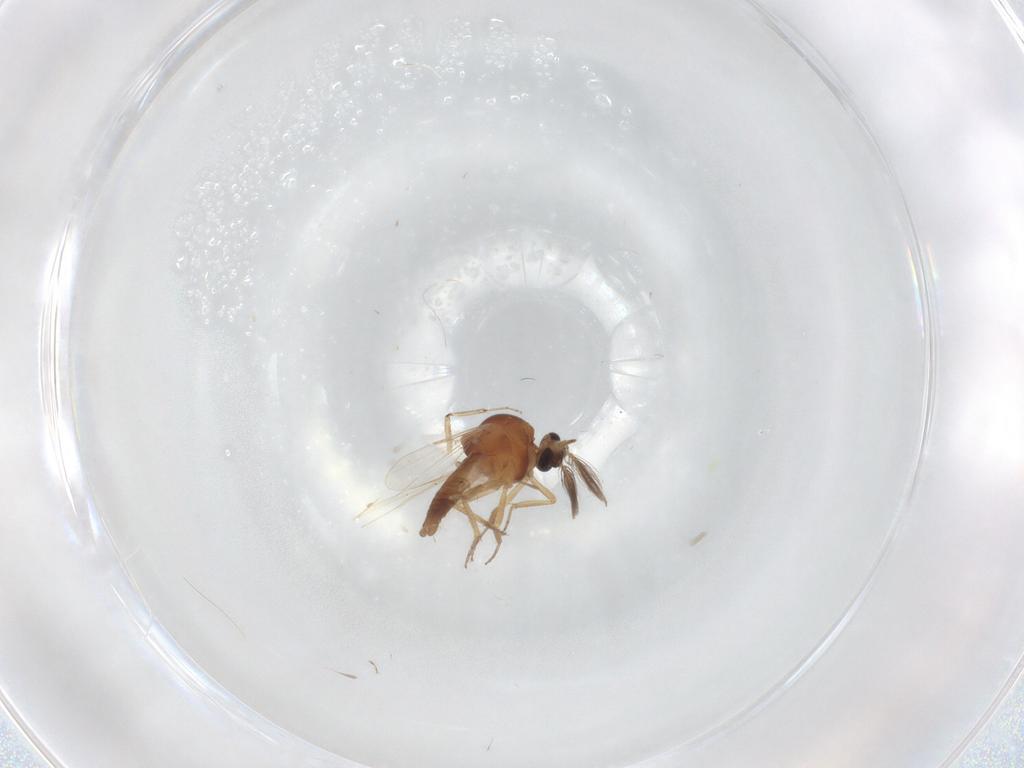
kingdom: Animalia
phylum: Arthropoda
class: Insecta
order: Diptera
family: Ceratopogonidae
